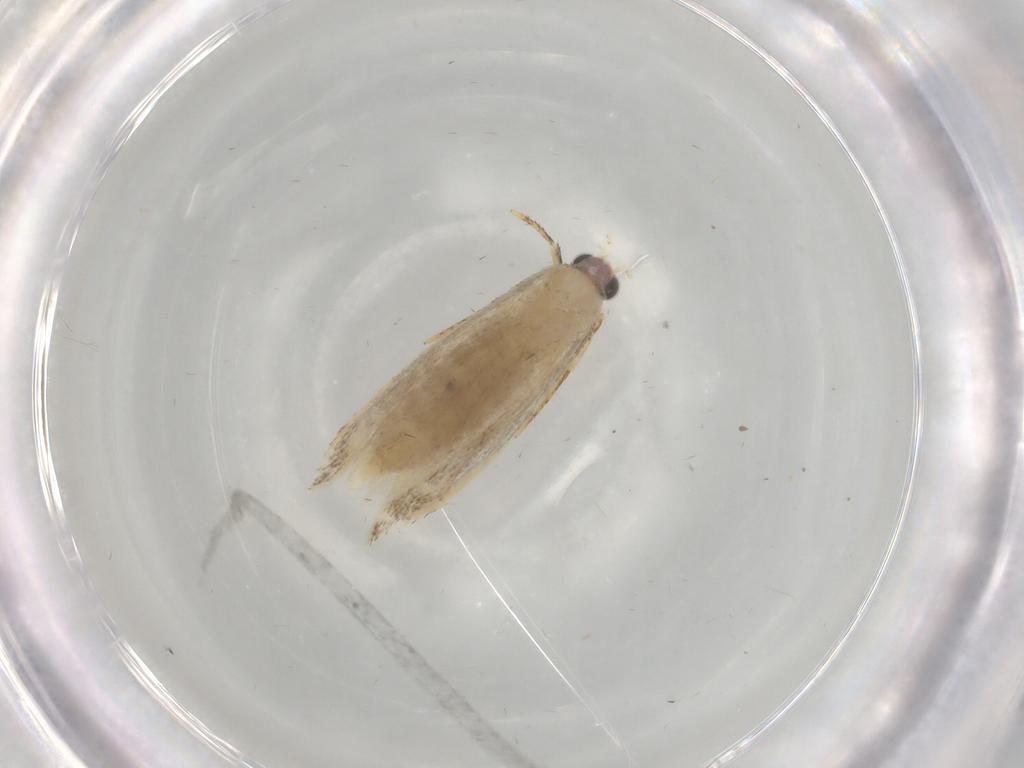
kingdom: Animalia
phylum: Arthropoda
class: Insecta
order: Lepidoptera
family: Nepticulidae
